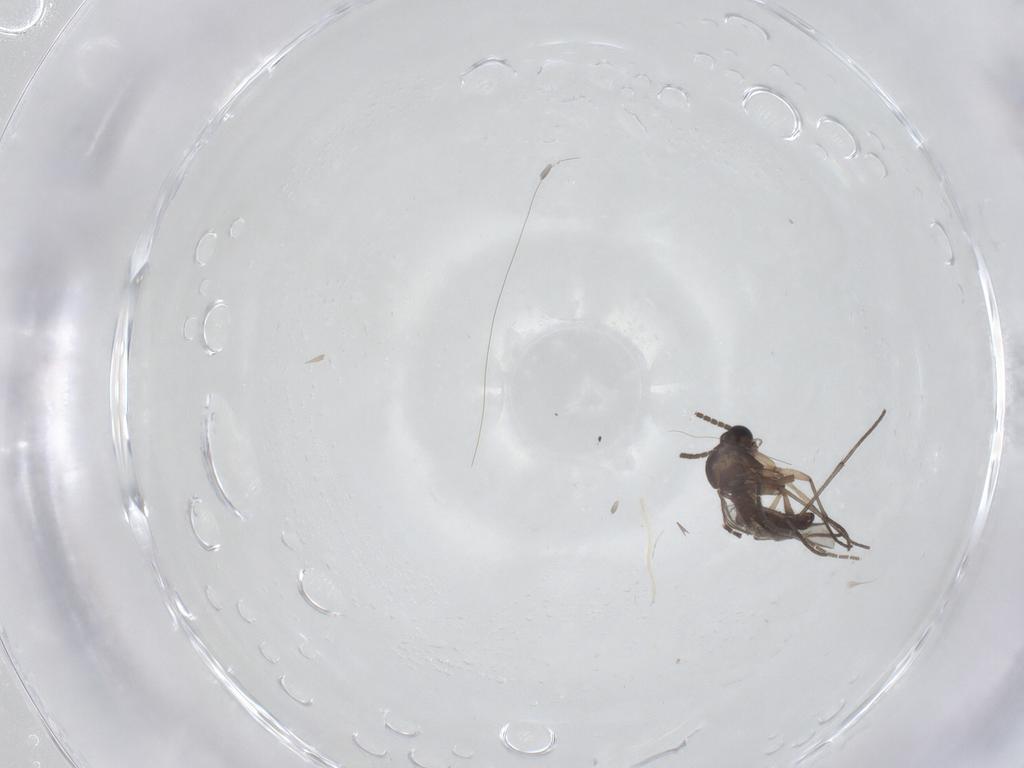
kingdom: Animalia
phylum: Arthropoda
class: Insecta
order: Diptera
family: Sciaridae
